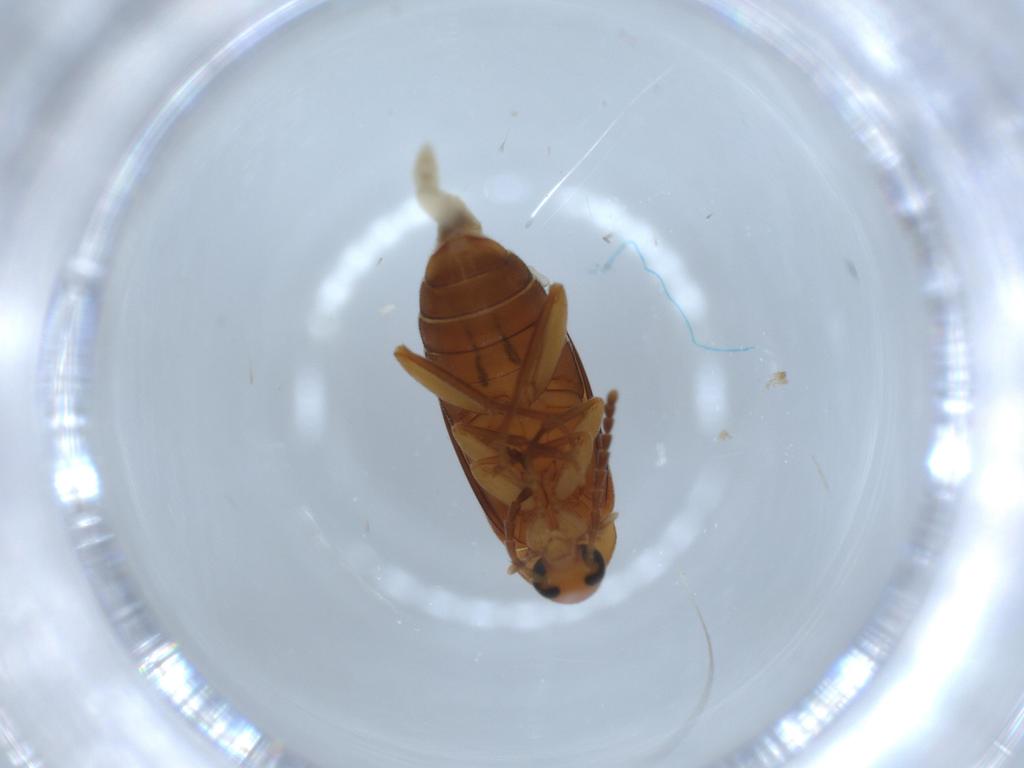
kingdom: Animalia
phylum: Arthropoda
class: Insecta
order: Coleoptera
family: Scraptiidae
